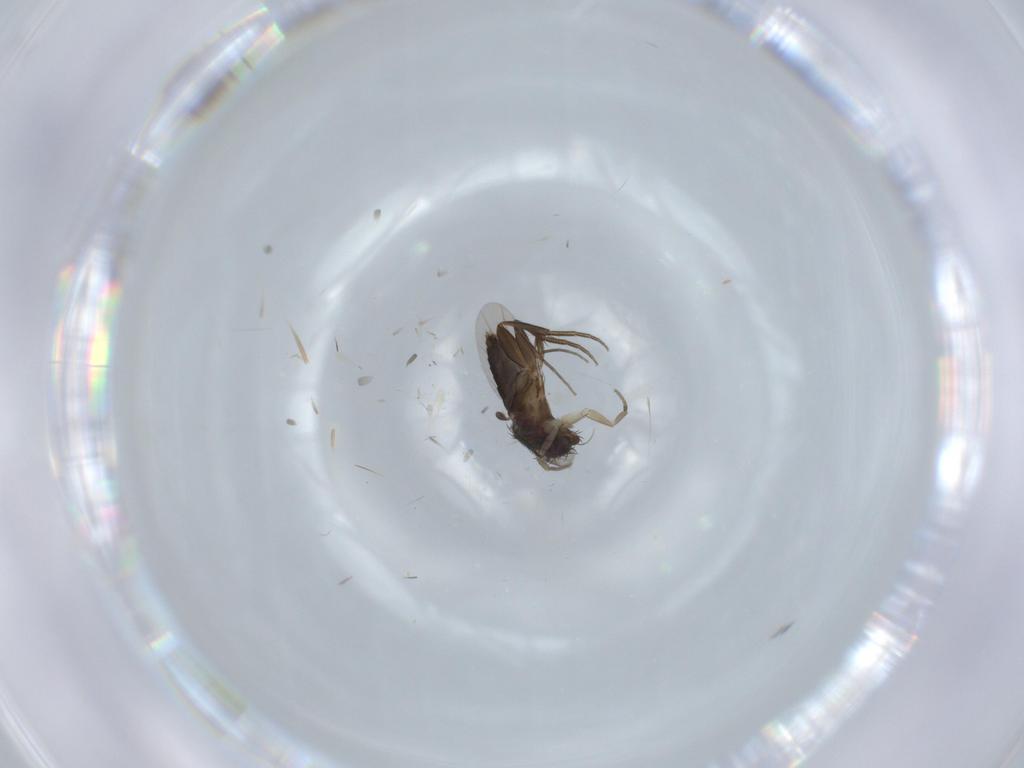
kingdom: Animalia
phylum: Arthropoda
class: Insecta
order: Diptera
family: Phoridae
